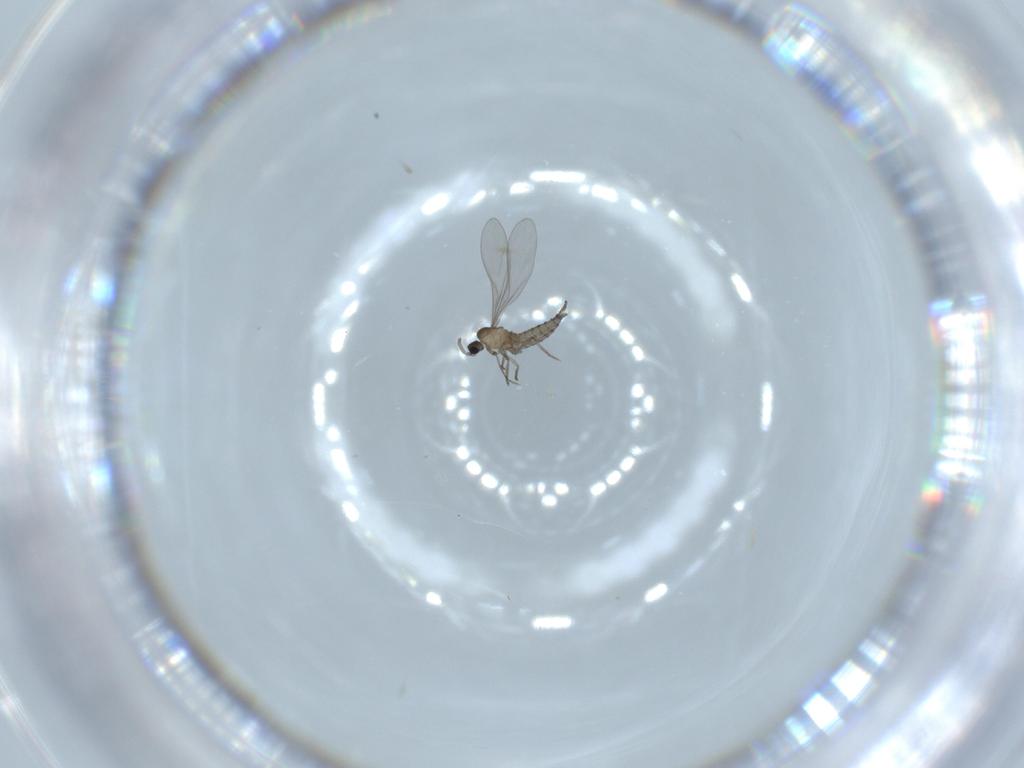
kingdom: Animalia
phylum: Arthropoda
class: Insecta
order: Diptera
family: Cecidomyiidae
